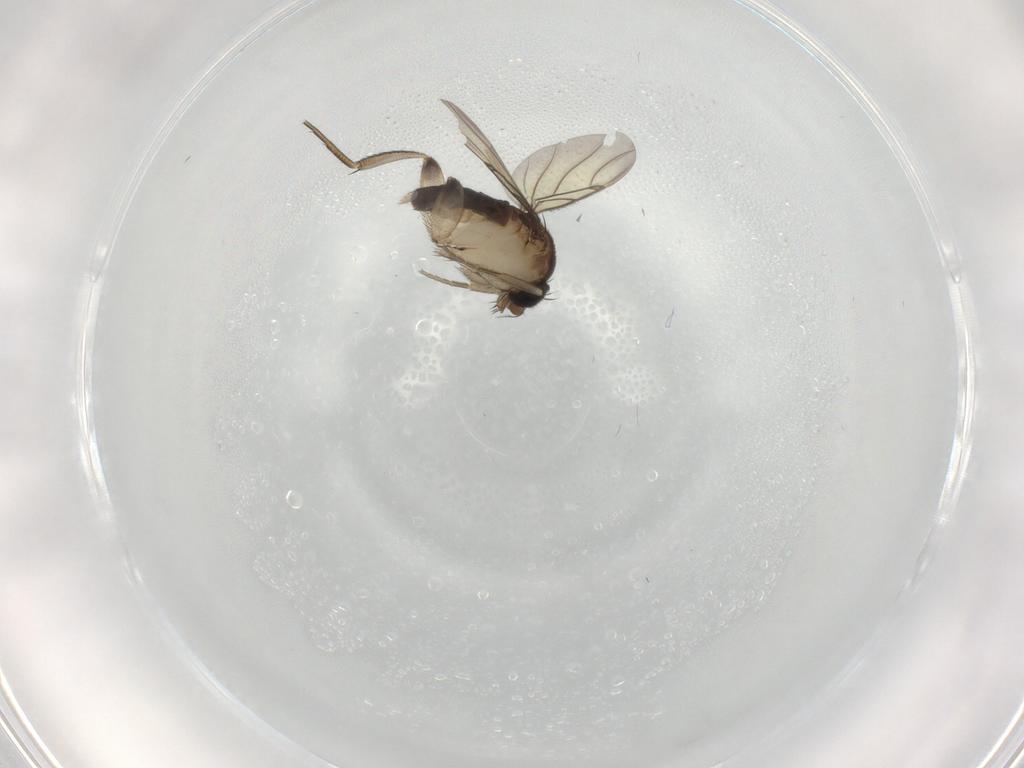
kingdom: Animalia
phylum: Arthropoda
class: Insecta
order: Diptera
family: Phoridae
